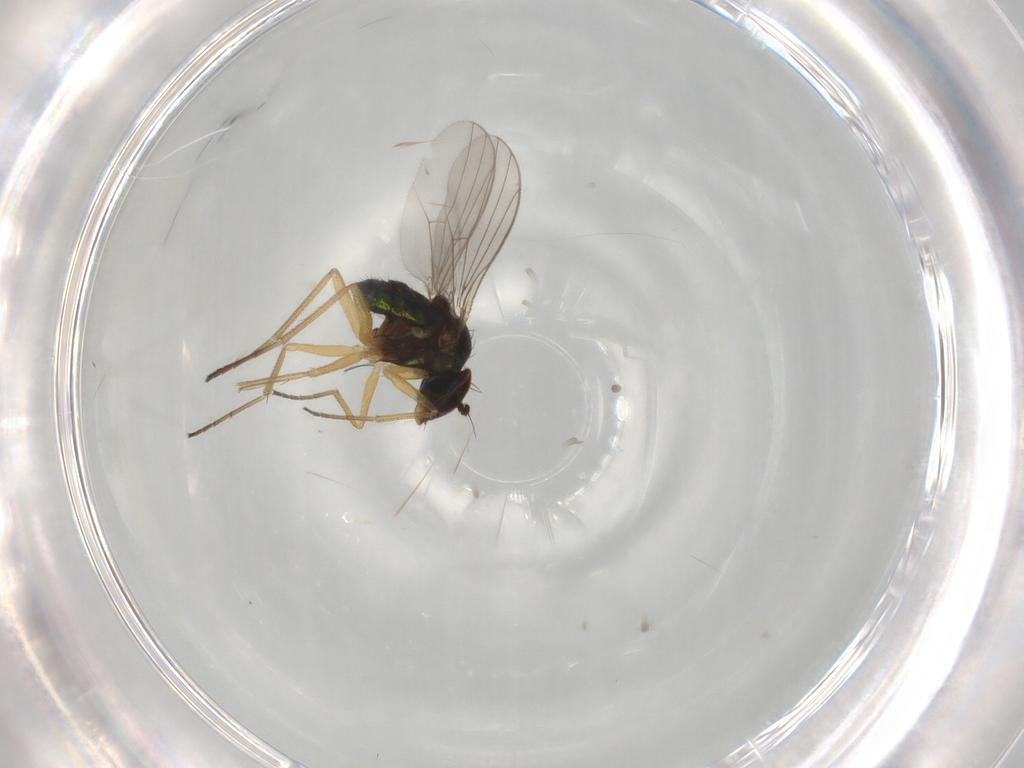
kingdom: Animalia
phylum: Arthropoda
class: Insecta
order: Diptera
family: Dolichopodidae
